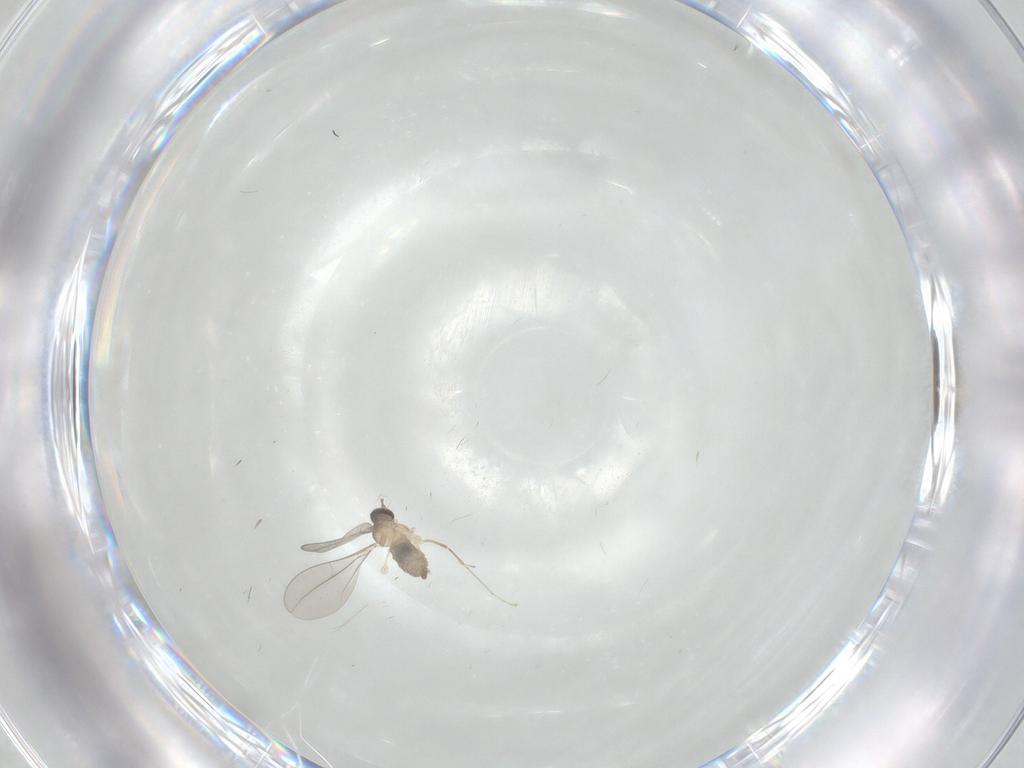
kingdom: Animalia
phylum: Arthropoda
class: Insecta
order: Diptera
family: Cecidomyiidae
